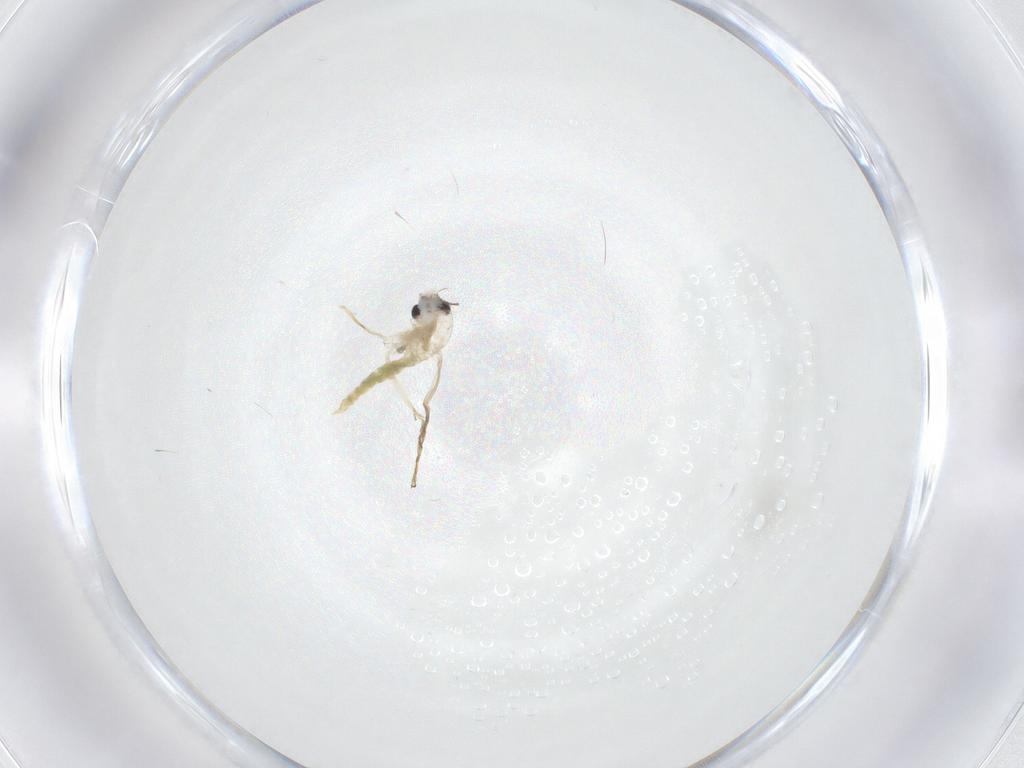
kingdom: Animalia
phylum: Arthropoda
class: Insecta
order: Diptera
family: Chironomidae
